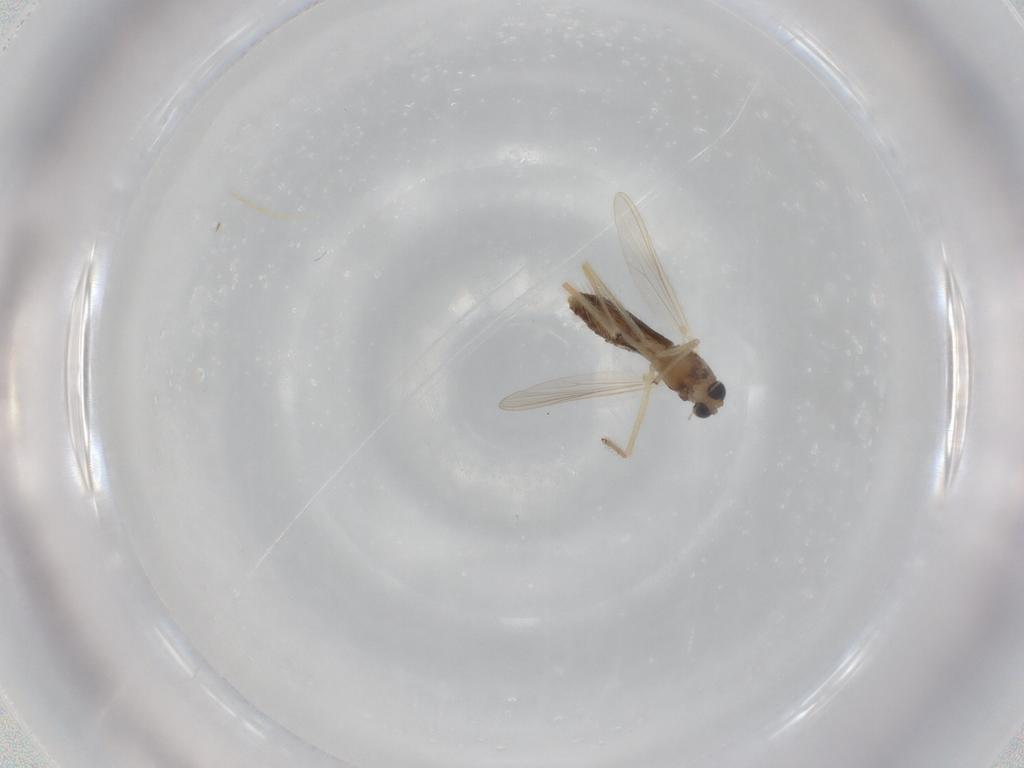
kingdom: Animalia
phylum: Arthropoda
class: Insecta
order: Diptera
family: Chironomidae
